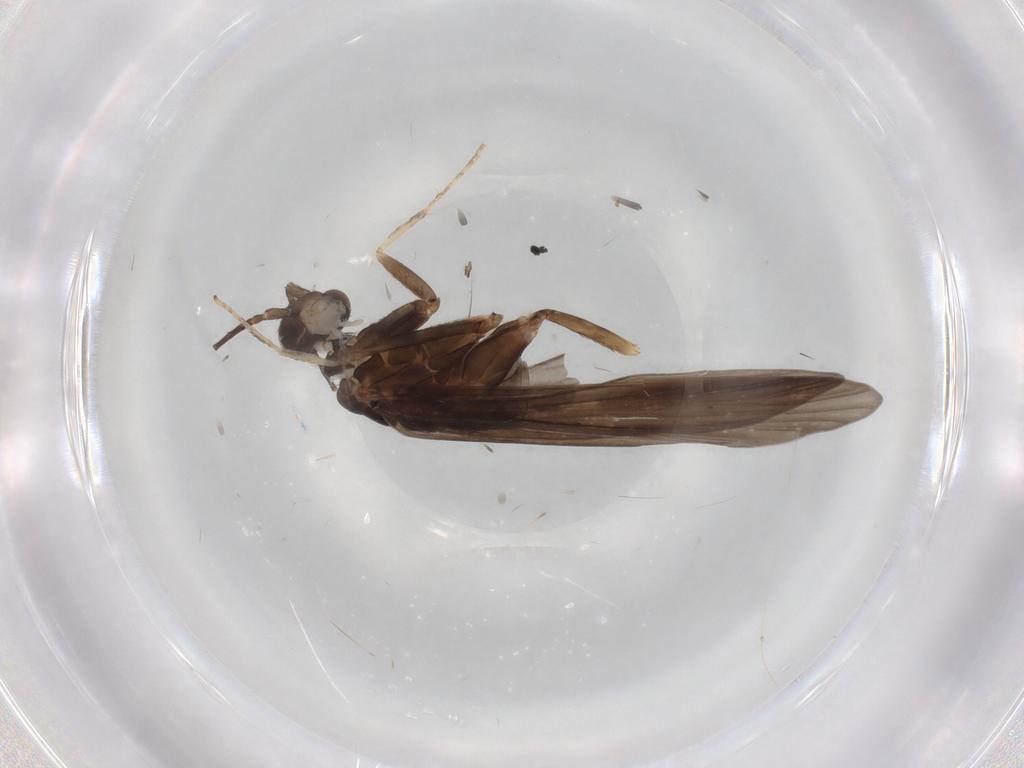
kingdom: Animalia
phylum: Arthropoda
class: Insecta
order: Trichoptera
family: Xiphocentronidae
